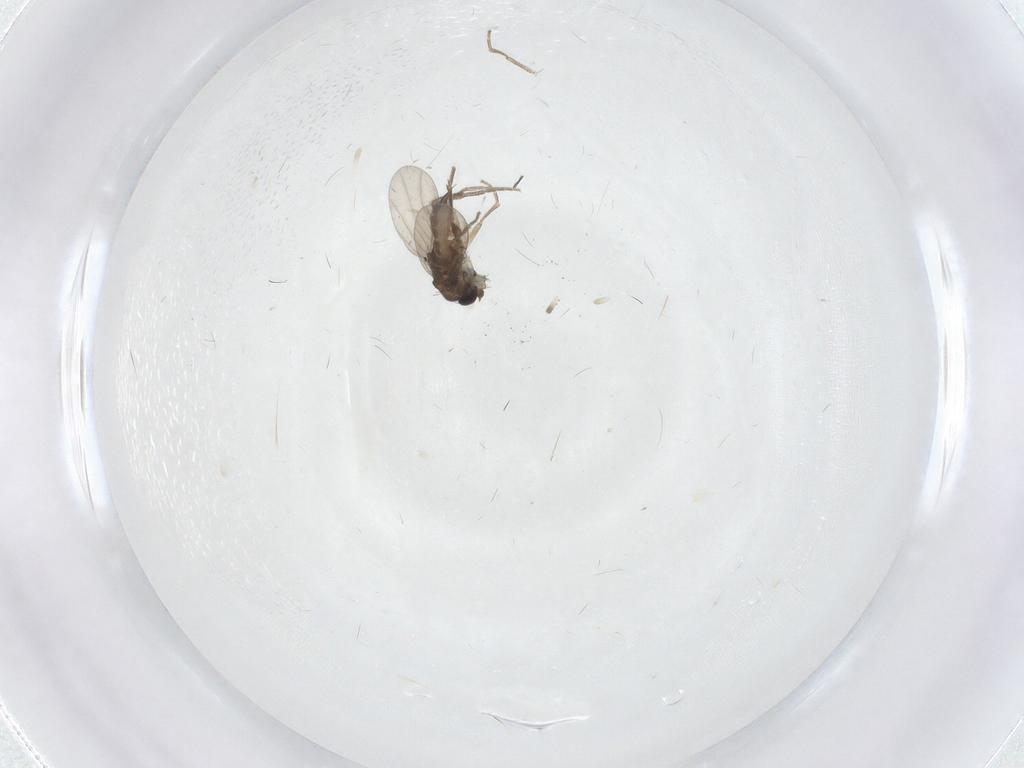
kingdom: Animalia
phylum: Arthropoda
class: Insecta
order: Diptera
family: Phoridae
